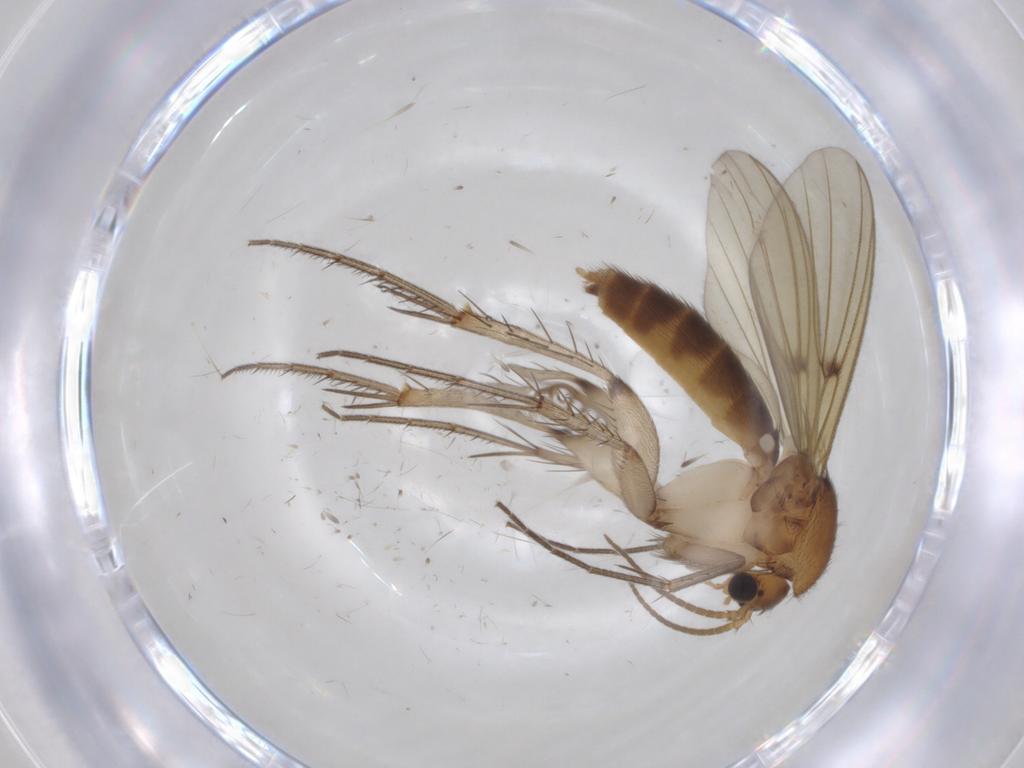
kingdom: Animalia
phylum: Arthropoda
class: Insecta
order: Diptera
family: Mycetophilidae
